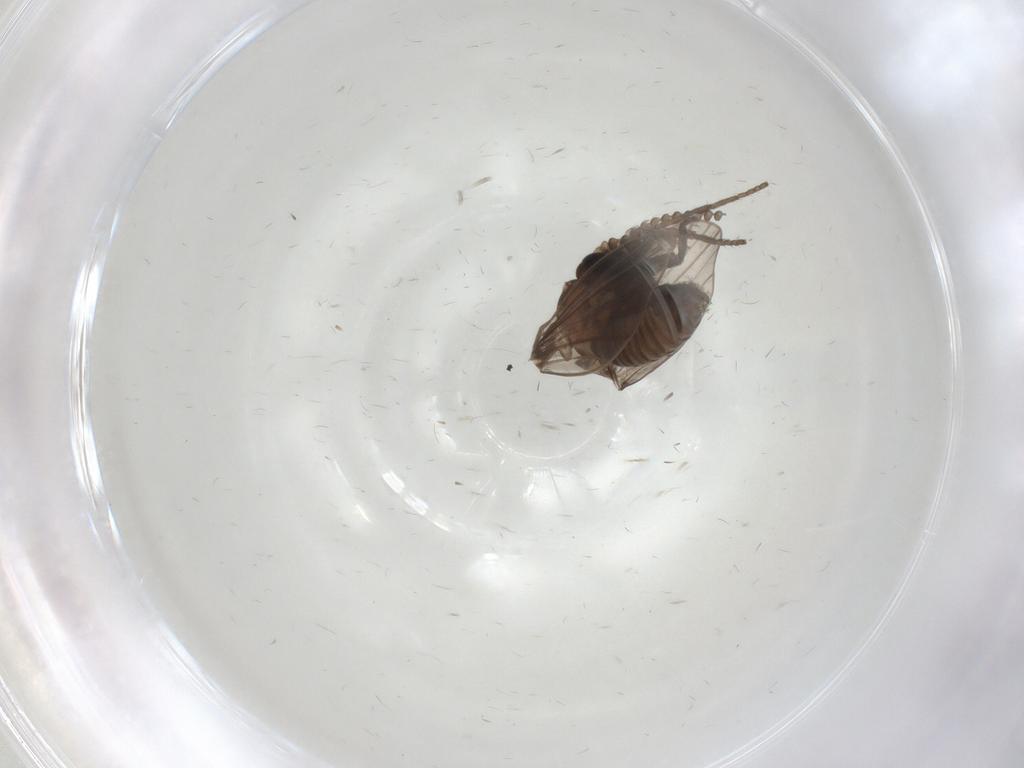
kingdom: Animalia
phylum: Arthropoda
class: Insecta
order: Diptera
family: Psychodidae
